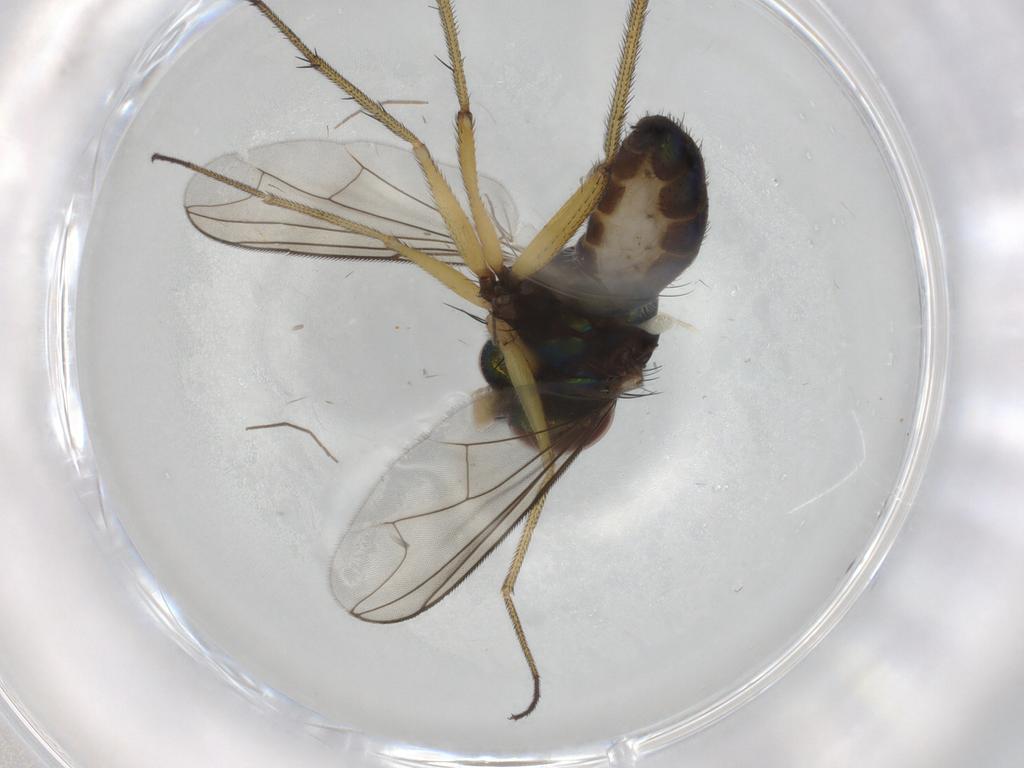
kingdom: Animalia
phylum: Arthropoda
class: Insecta
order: Diptera
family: Dolichopodidae
